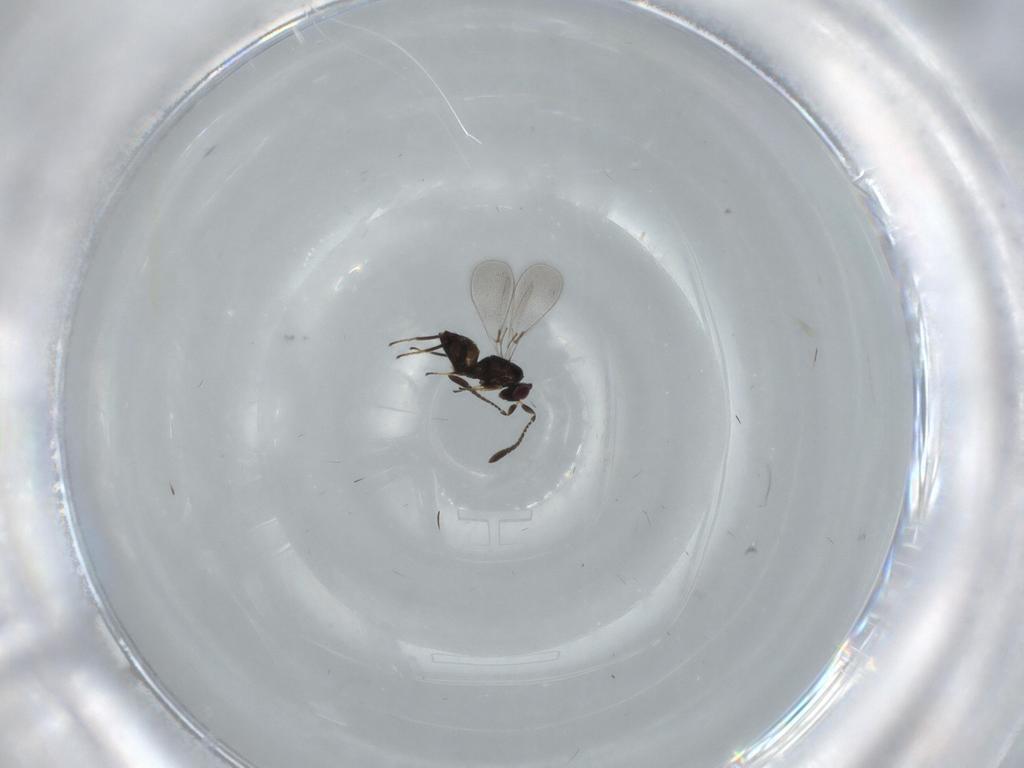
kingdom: Animalia
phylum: Arthropoda
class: Insecta
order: Hymenoptera
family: Mymaridae
